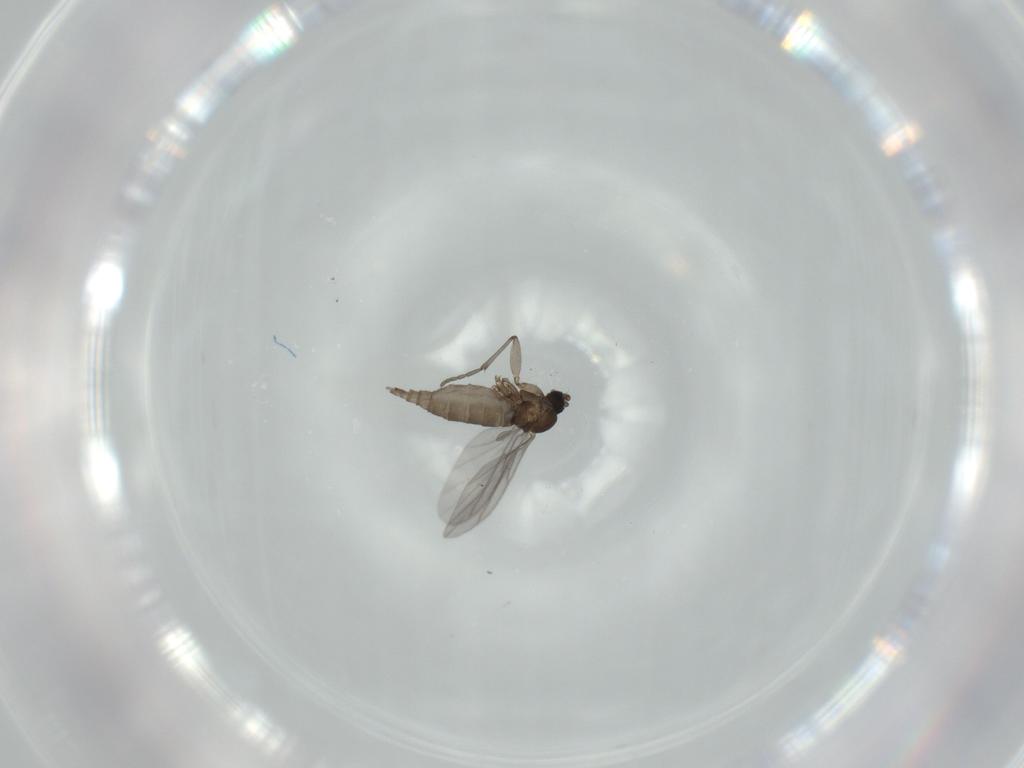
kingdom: Animalia
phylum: Arthropoda
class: Insecta
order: Diptera
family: Sciaridae
